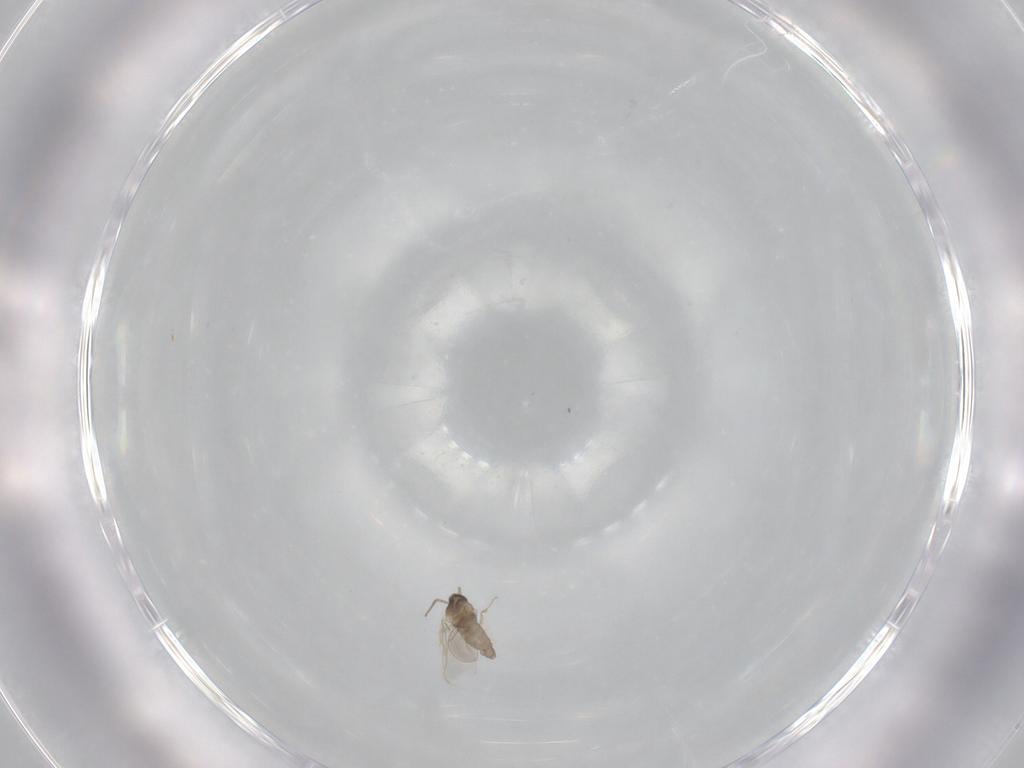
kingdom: Animalia
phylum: Arthropoda
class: Insecta
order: Diptera
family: Cecidomyiidae
